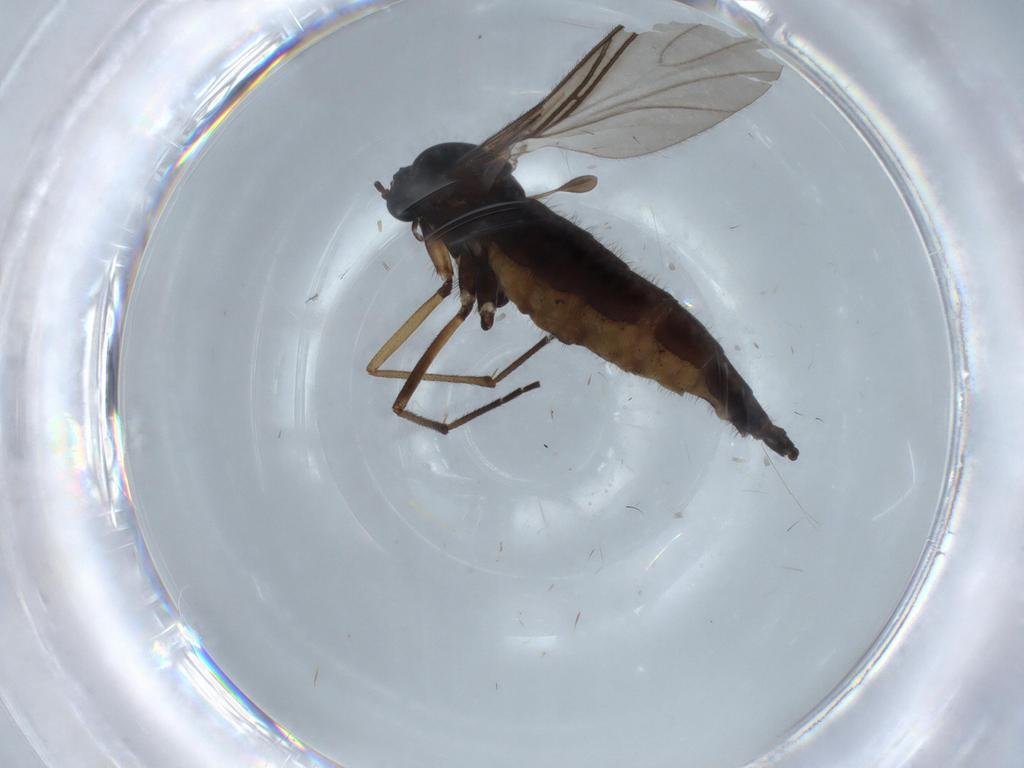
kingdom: Animalia
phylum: Arthropoda
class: Insecta
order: Diptera
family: Sciaridae
